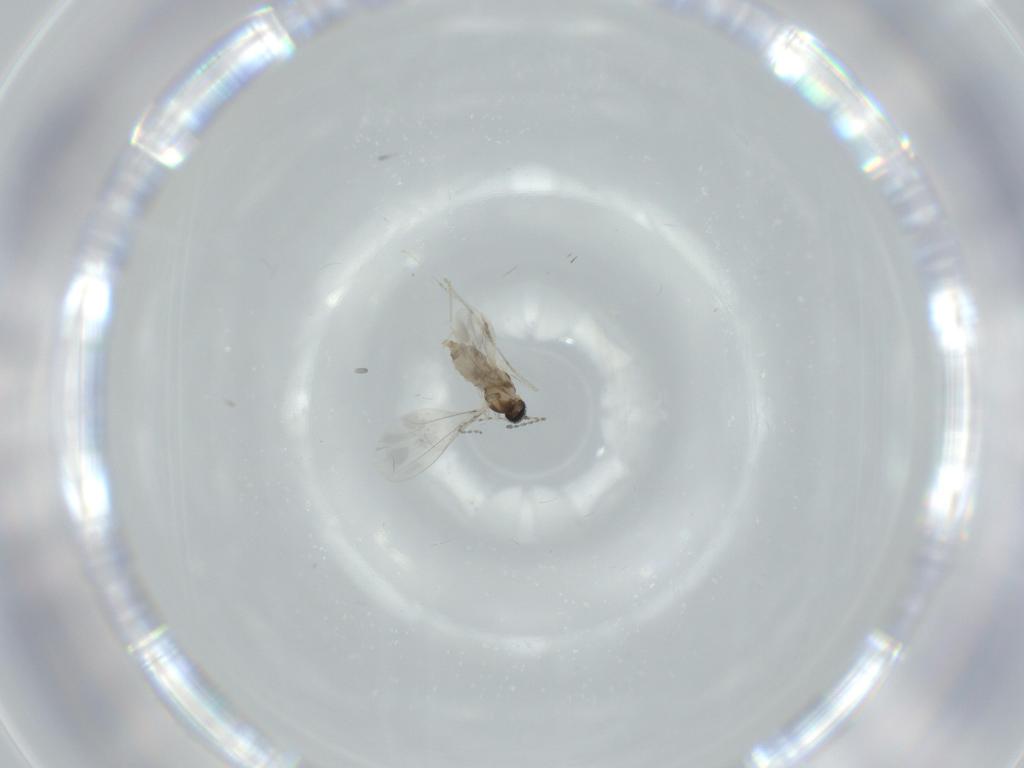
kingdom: Animalia
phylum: Arthropoda
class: Insecta
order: Diptera
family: Cecidomyiidae
